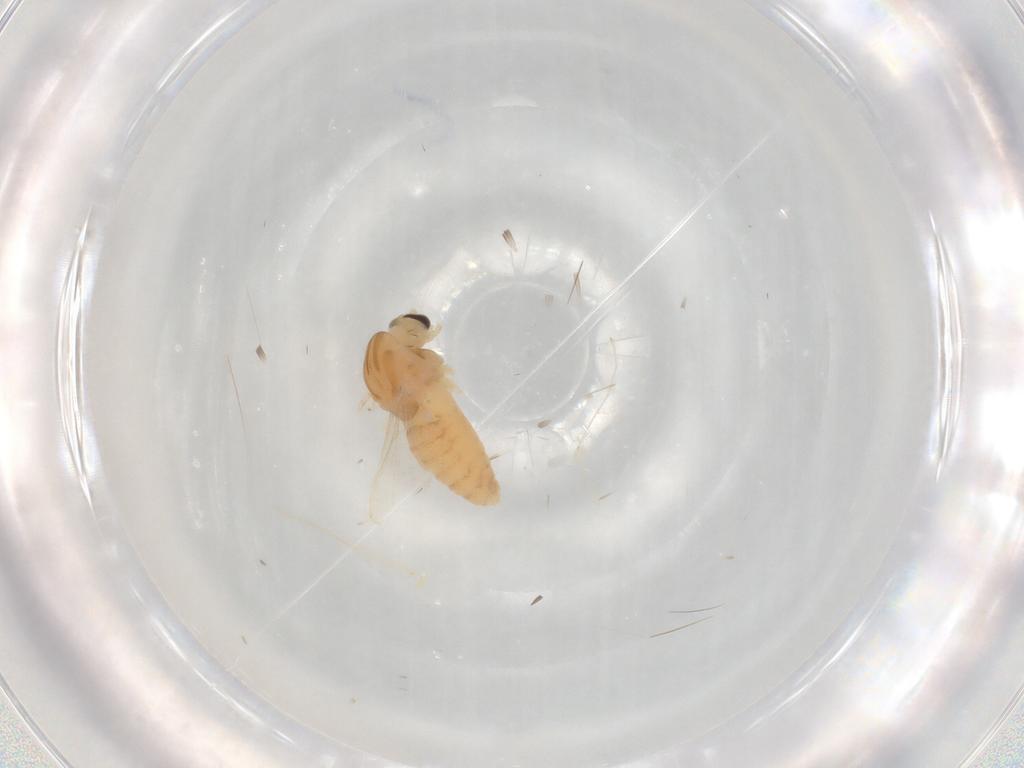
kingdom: Animalia
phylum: Arthropoda
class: Insecta
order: Diptera
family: Chironomidae
